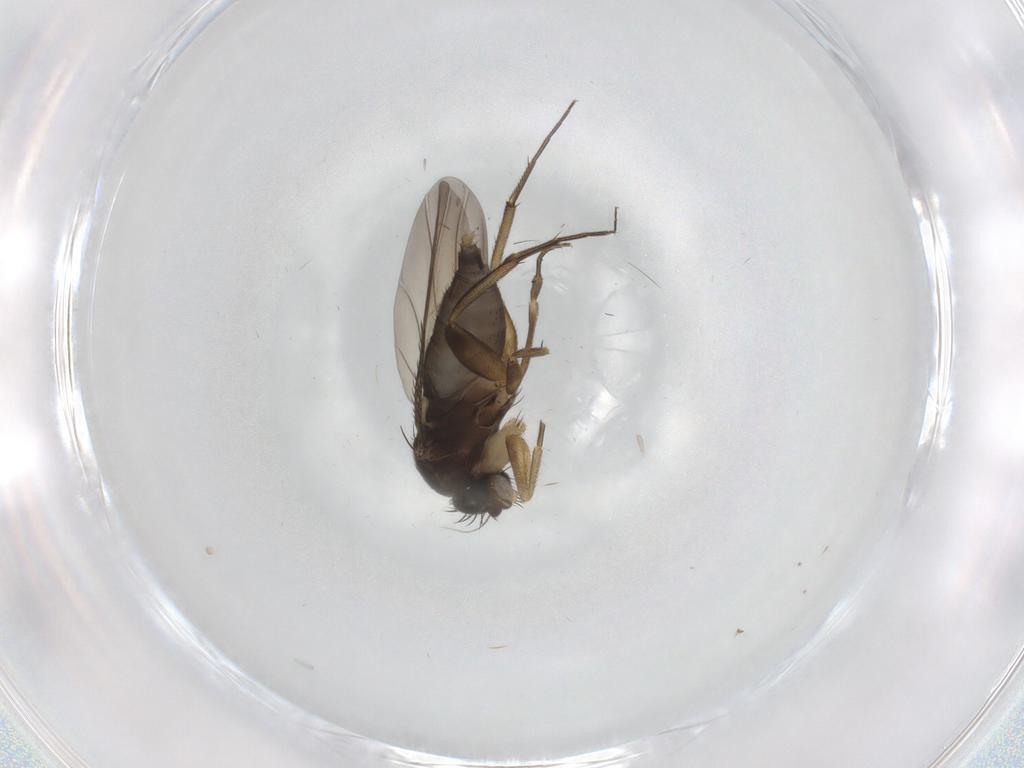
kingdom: Animalia
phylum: Arthropoda
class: Insecta
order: Diptera
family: Phoridae
